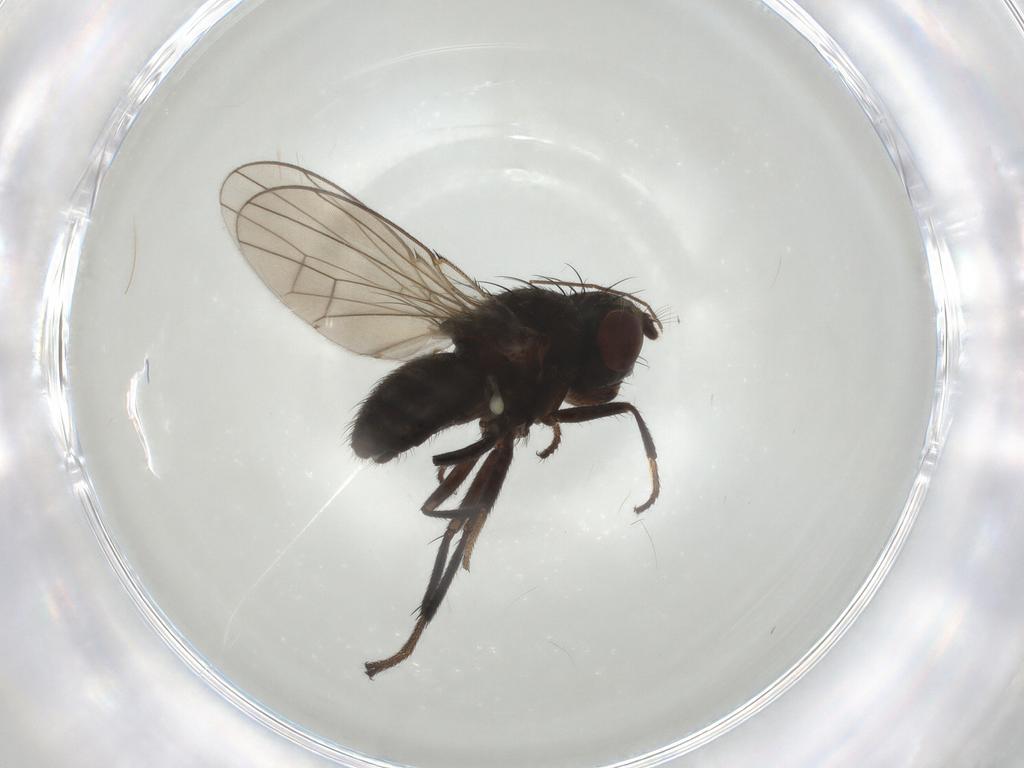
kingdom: Animalia
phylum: Arthropoda
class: Insecta
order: Diptera
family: Ephydridae
